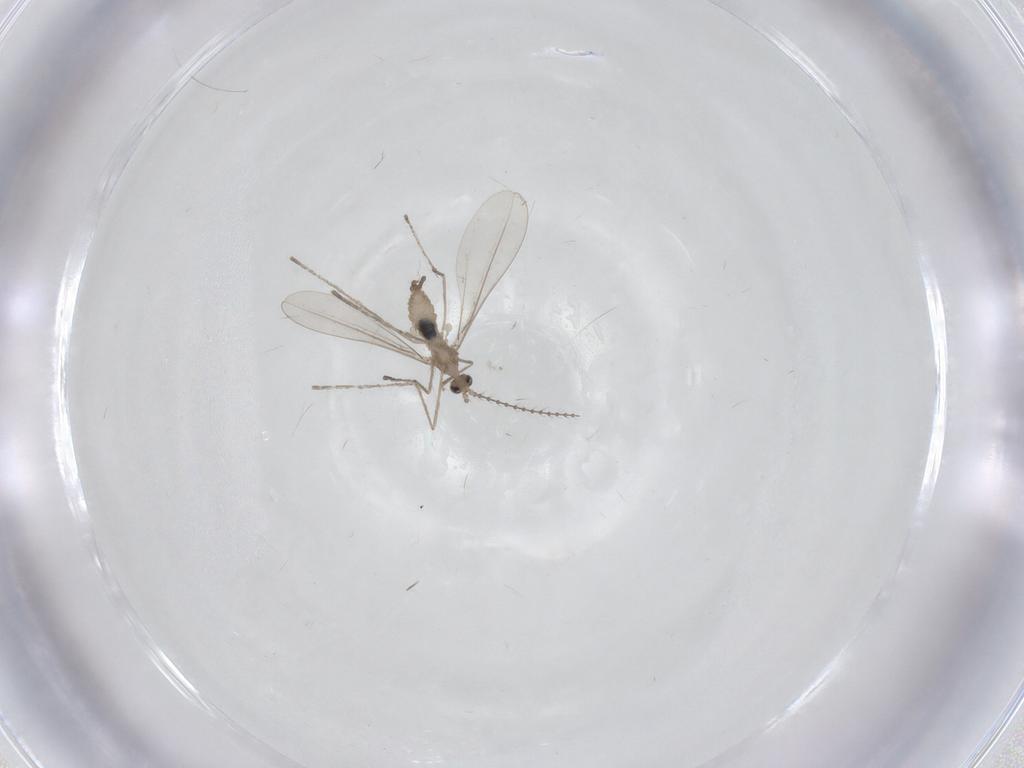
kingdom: Animalia
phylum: Arthropoda
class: Insecta
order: Diptera
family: Cecidomyiidae
